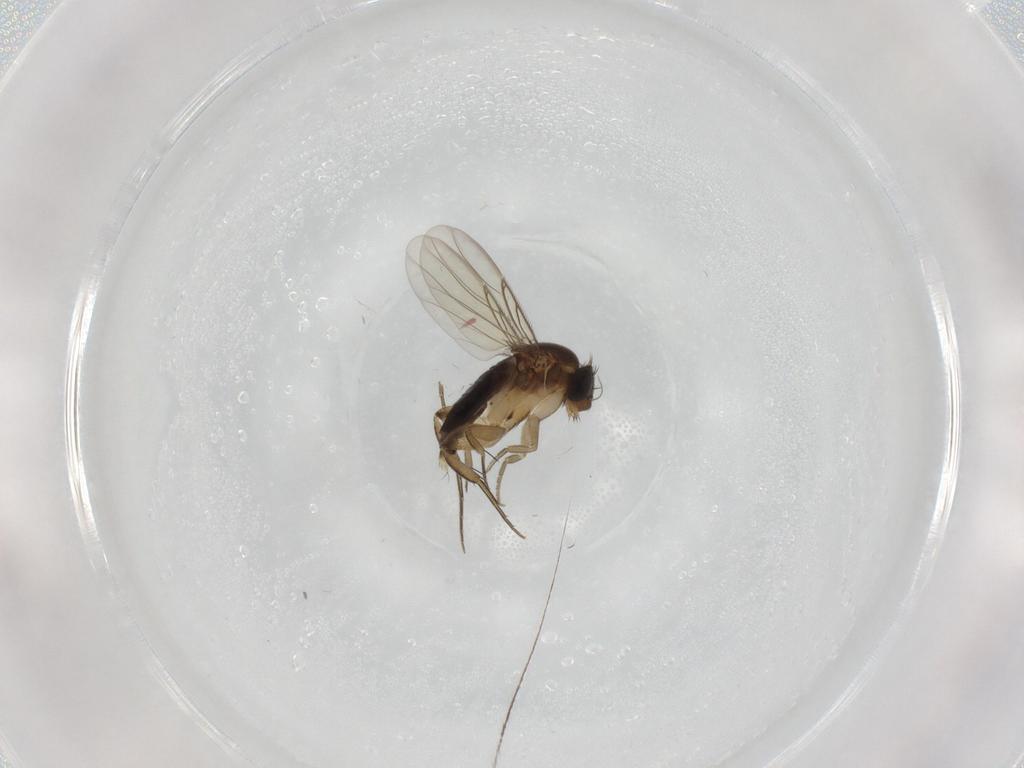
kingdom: Animalia
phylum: Arthropoda
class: Insecta
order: Diptera
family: Phoridae
